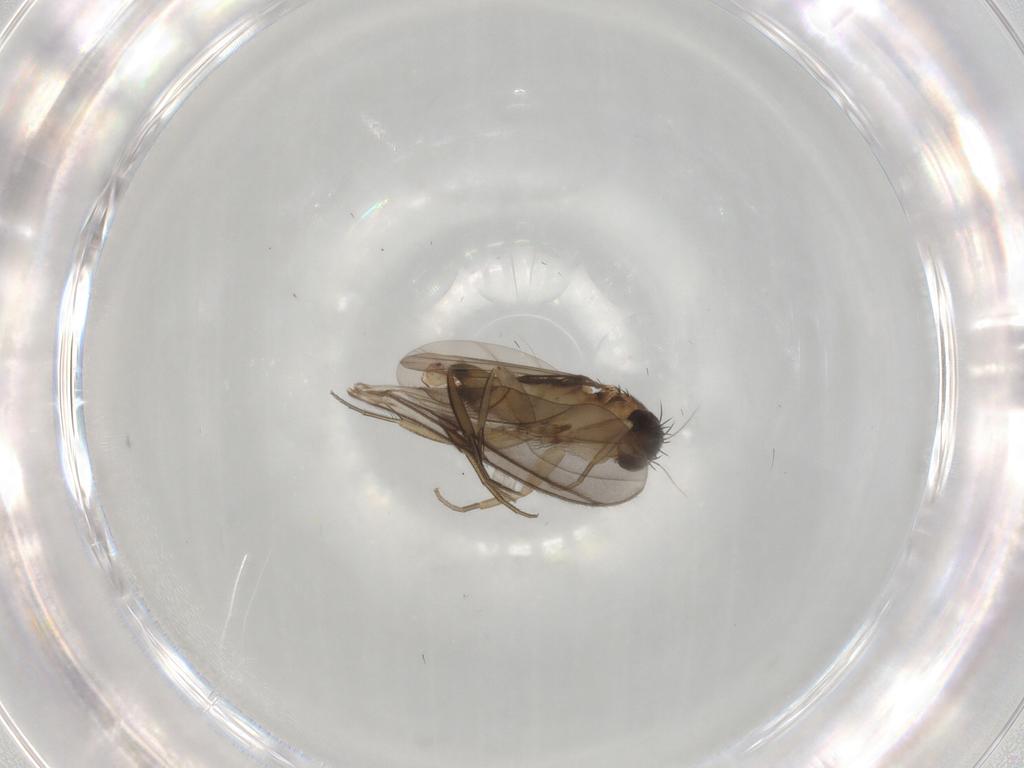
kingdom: Animalia
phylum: Arthropoda
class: Insecta
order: Diptera
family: Phoridae
